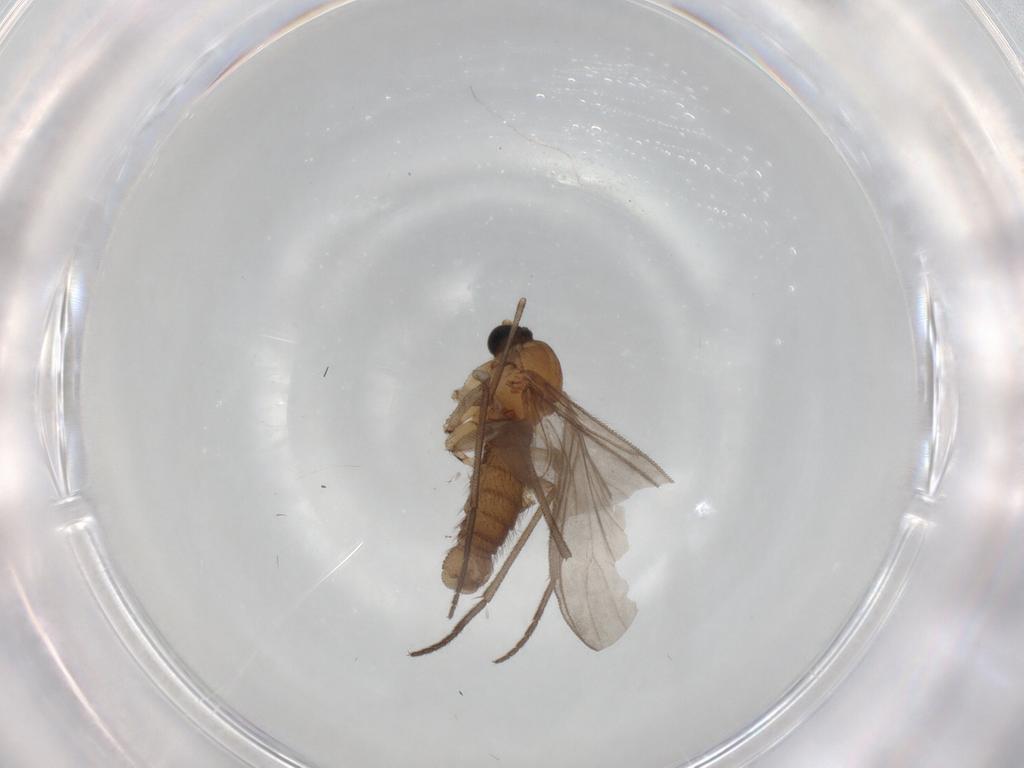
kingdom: Animalia
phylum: Arthropoda
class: Insecta
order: Diptera
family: Sciaridae
